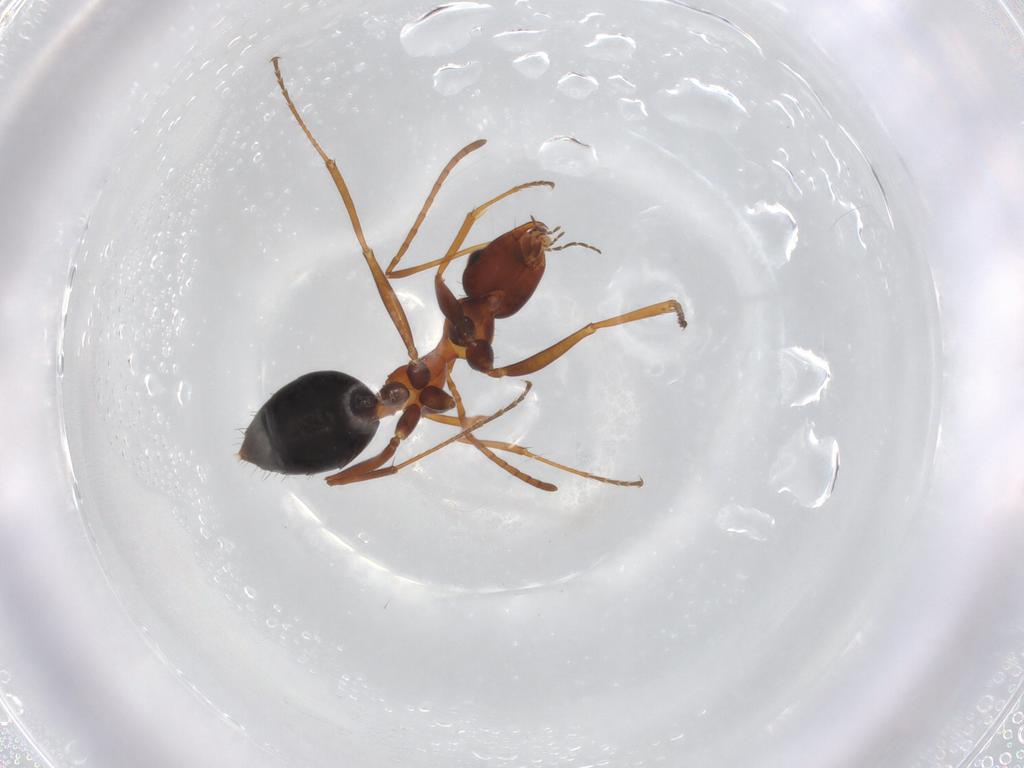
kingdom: Animalia
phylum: Arthropoda
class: Insecta
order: Hymenoptera
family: Formicidae
